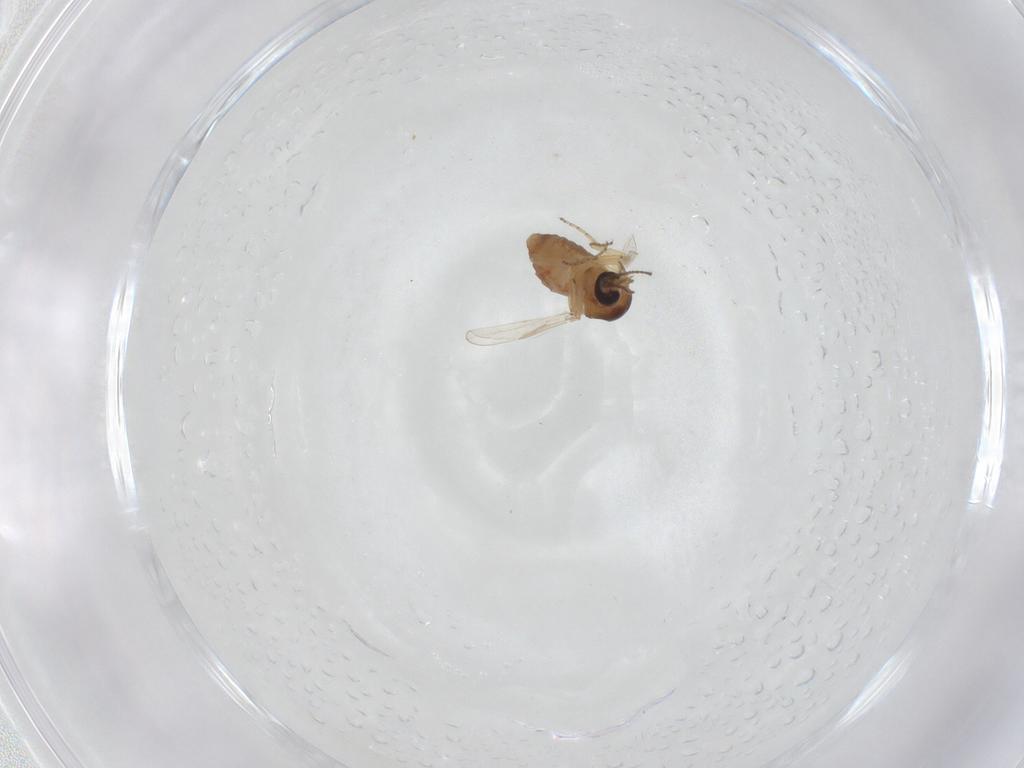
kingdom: Animalia
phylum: Arthropoda
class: Insecta
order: Diptera
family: Ceratopogonidae
